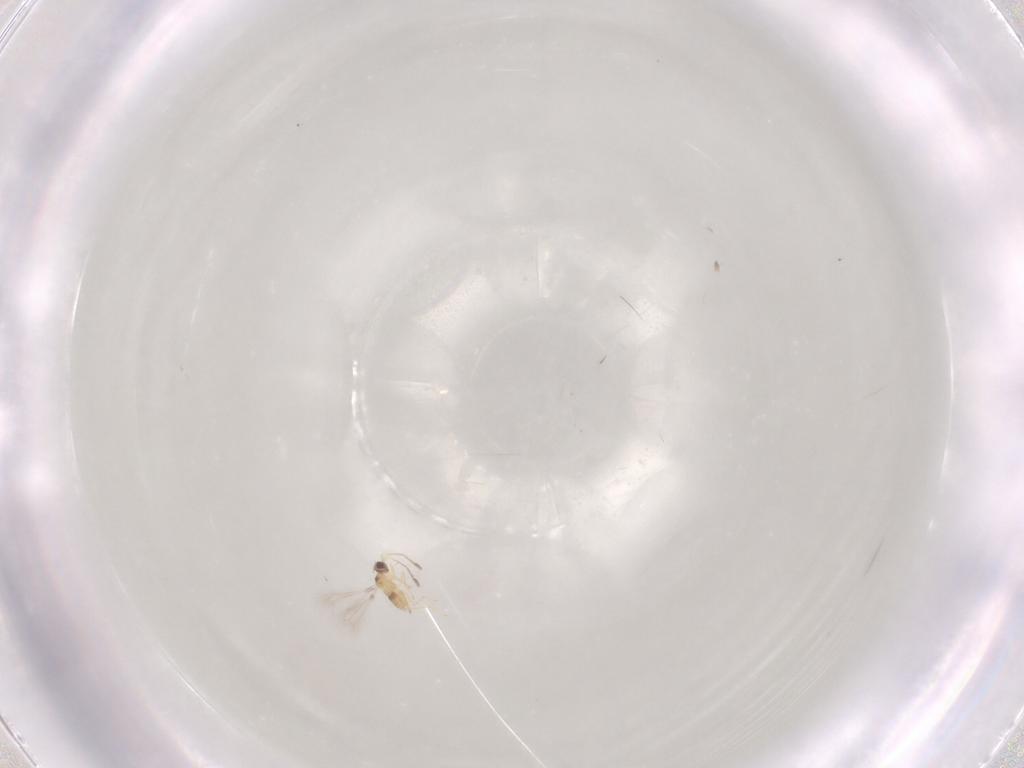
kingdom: Animalia
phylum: Arthropoda
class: Insecta
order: Diptera
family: Chironomidae
